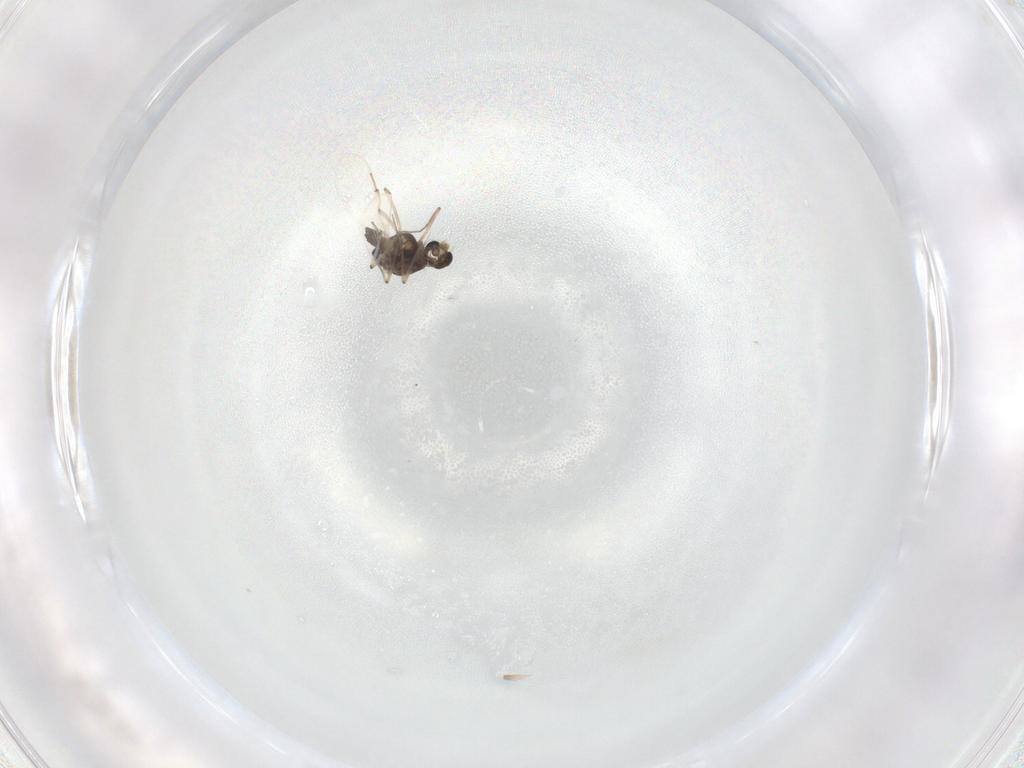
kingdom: Animalia
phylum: Arthropoda
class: Insecta
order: Diptera
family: Chironomidae
